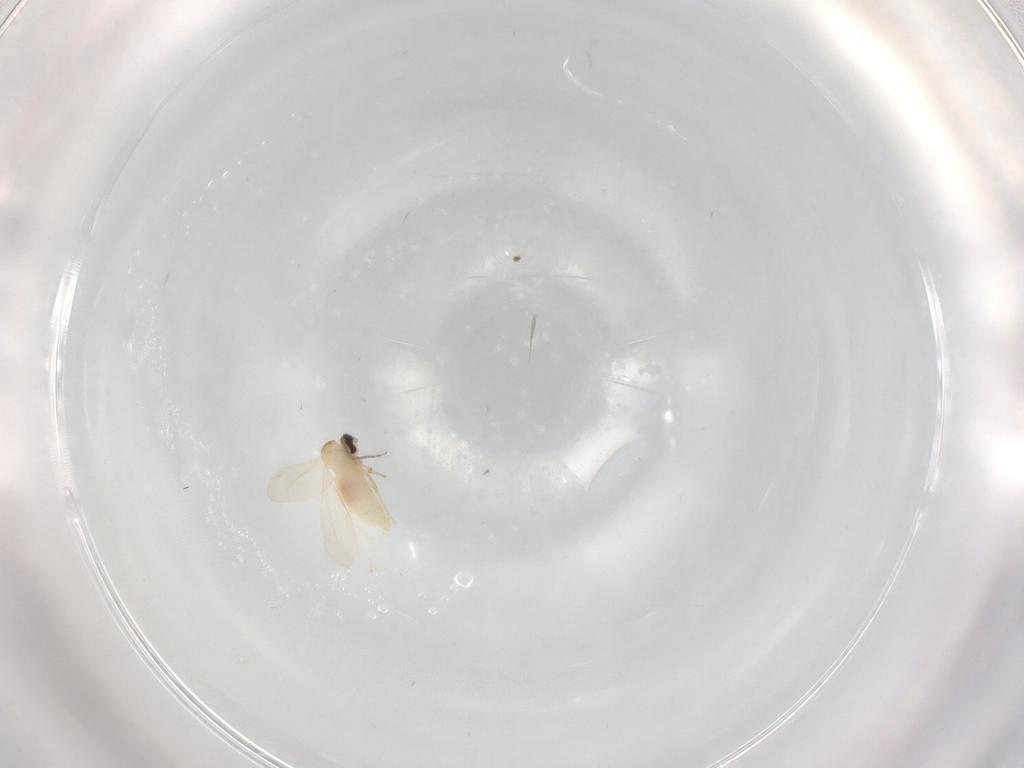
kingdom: Animalia
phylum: Arthropoda
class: Insecta
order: Diptera
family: Cecidomyiidae
